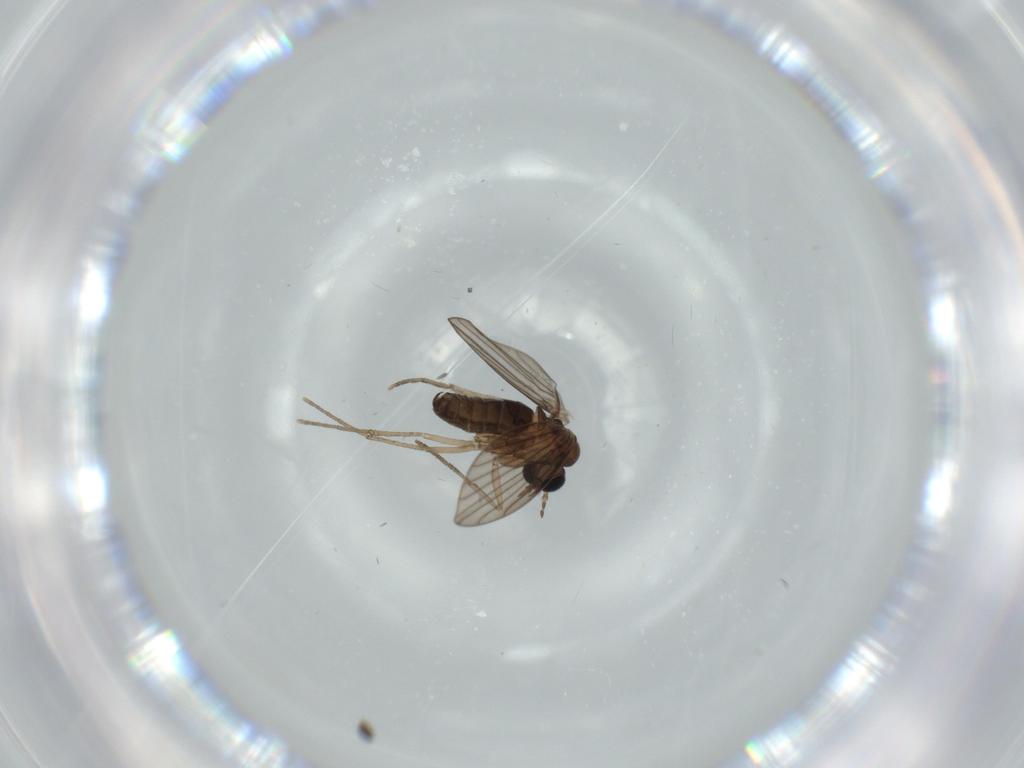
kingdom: Animalia
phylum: Arthropoda
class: Insecta
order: Diptera
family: Psychodidae
